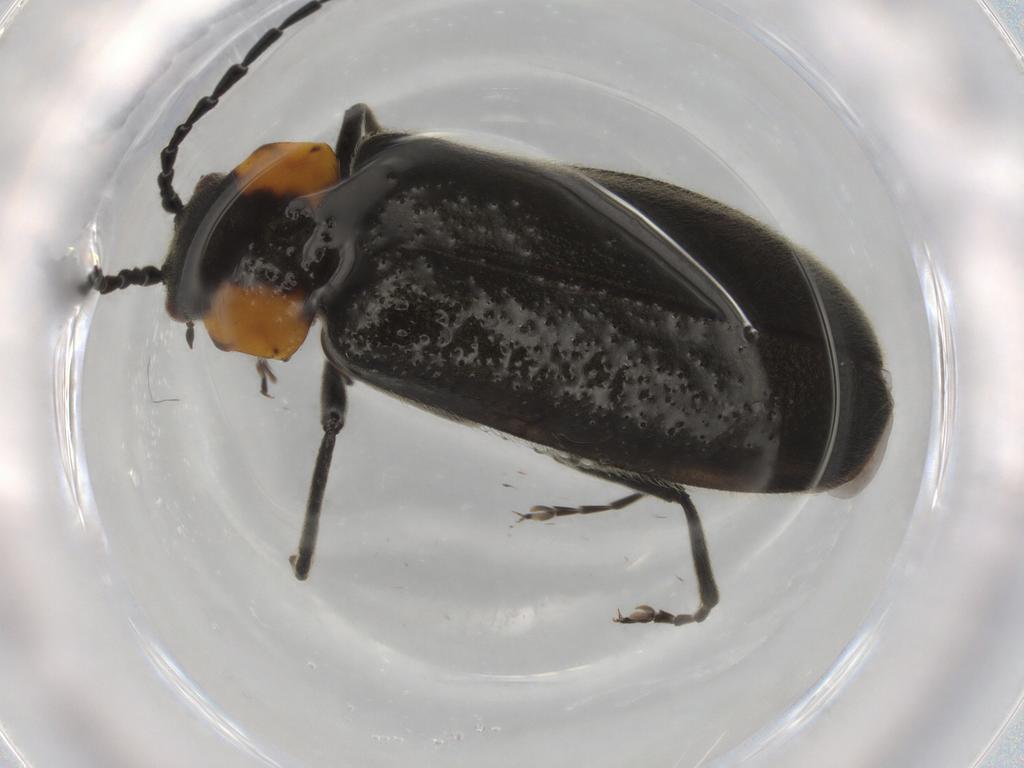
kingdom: Animalia
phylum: Arthropoda
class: Insecta
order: Coleoptera
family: Cantharidae
